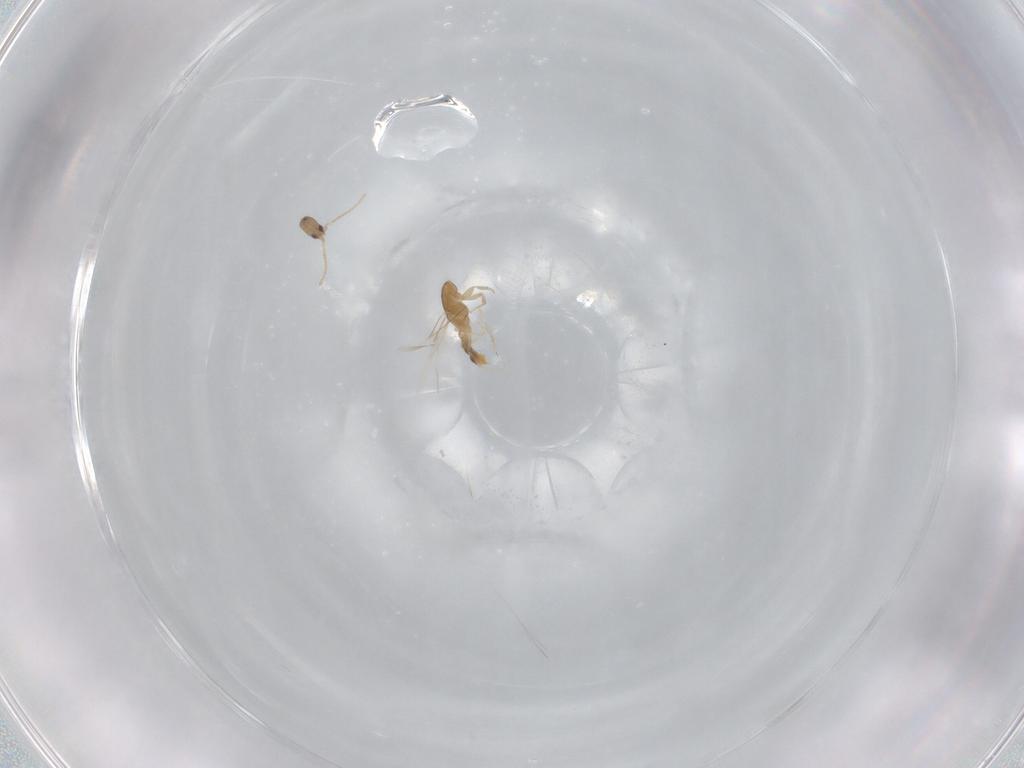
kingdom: Animalia
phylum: Arthropoda
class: Insecta
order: Hymenoptera
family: Formicidae
